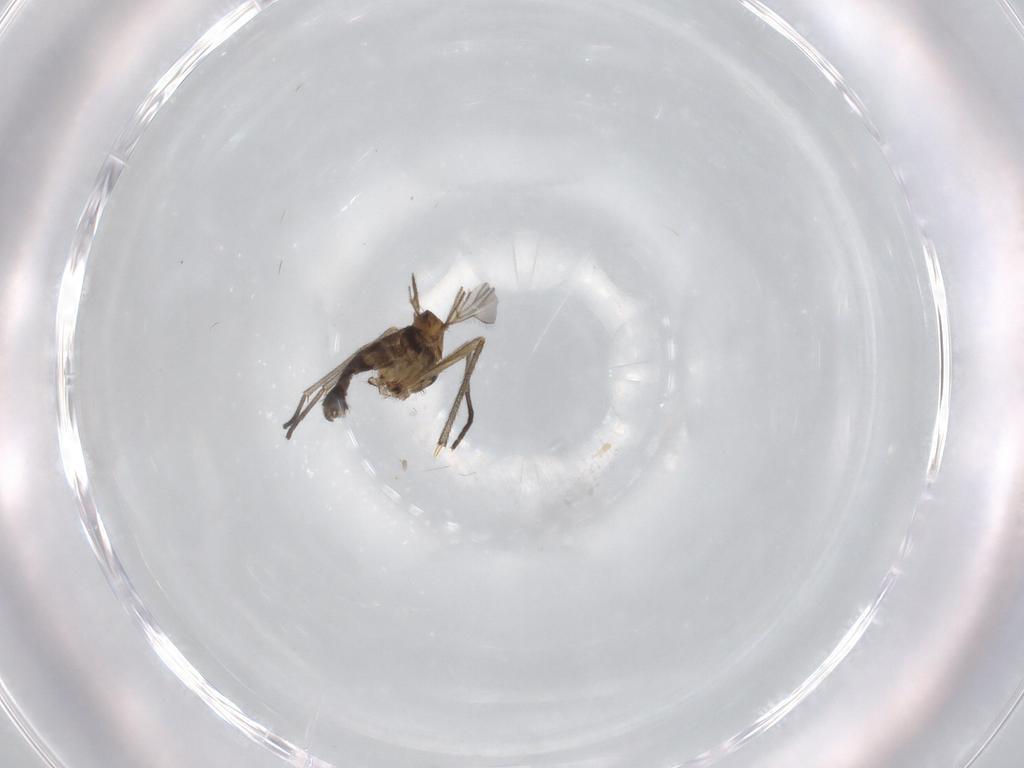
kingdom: Animalia
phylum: Arthropoda
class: Insecta
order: Diptera
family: Sciaridae
